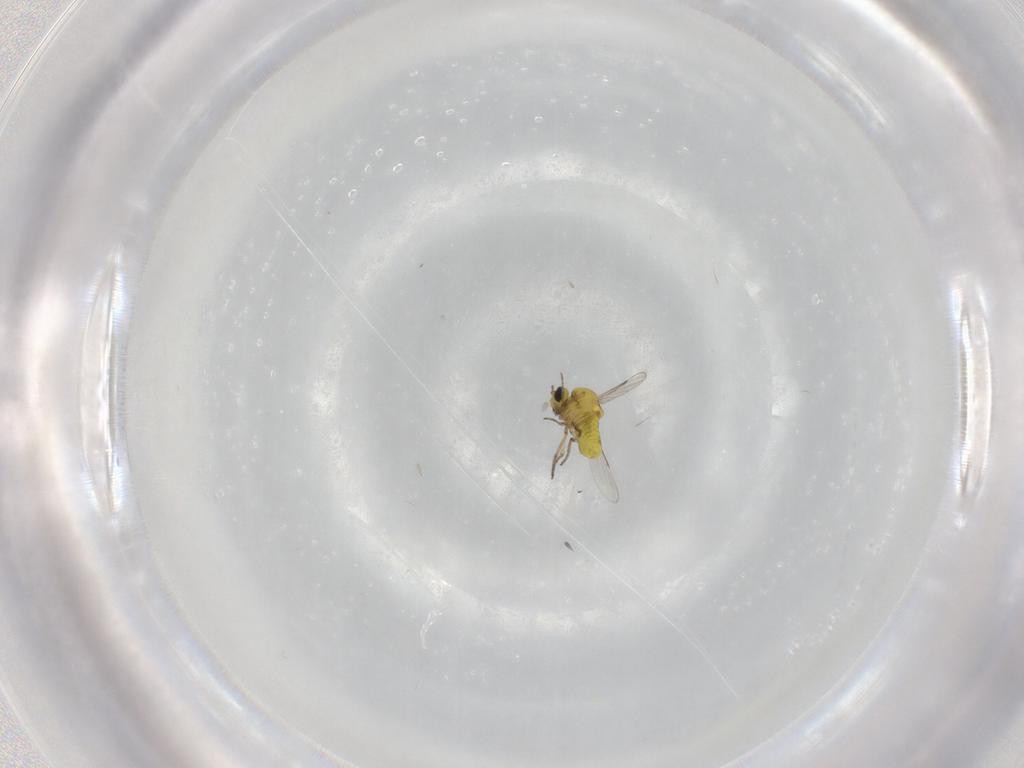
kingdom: Animalia
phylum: Arthropoda
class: Insecta
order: Diptera
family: Ceratopogonidae
